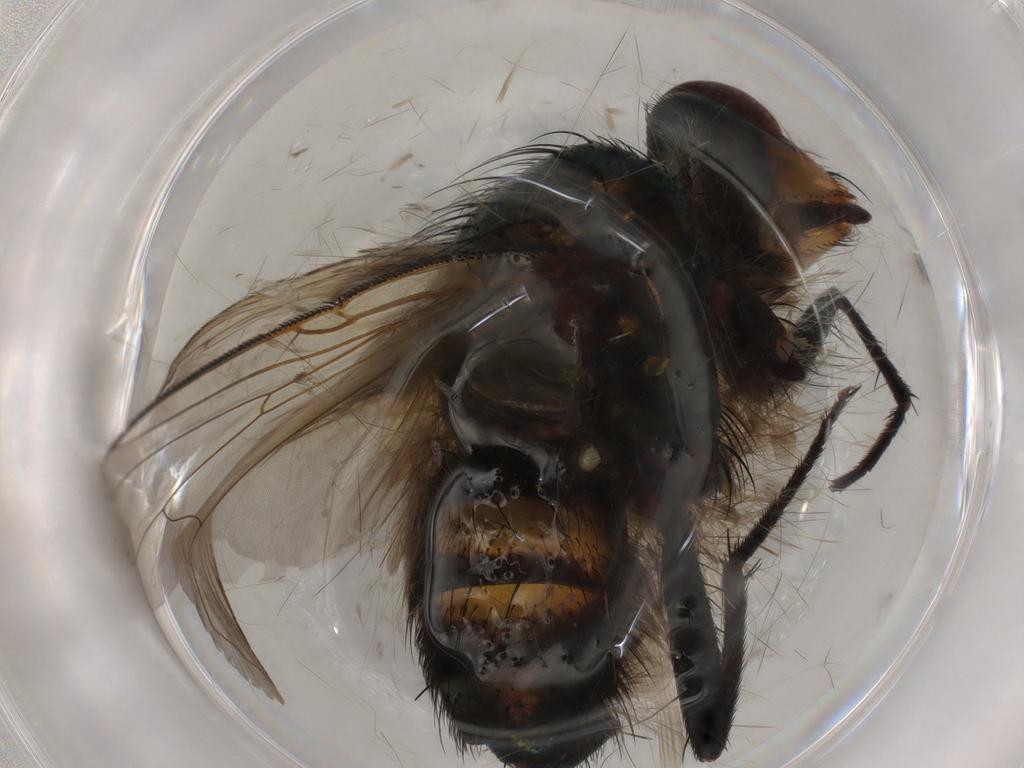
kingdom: Animalia
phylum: Arthropoda
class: Insecta
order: Diptera
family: Calliphoridae
